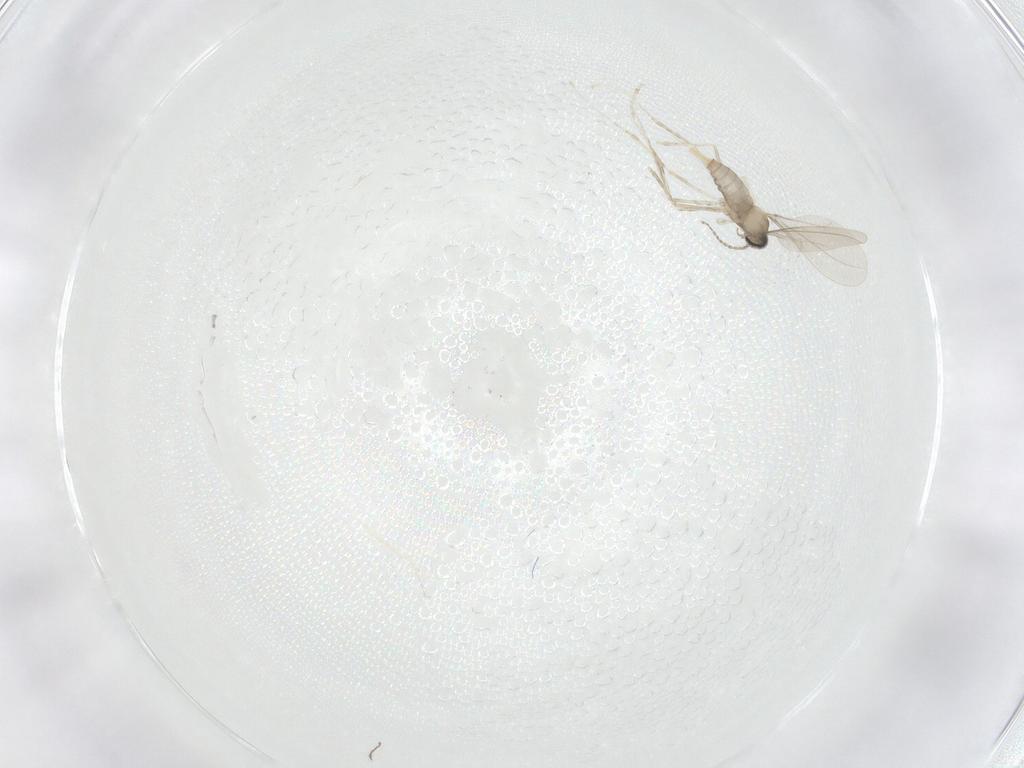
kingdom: Animalia
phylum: Arthropoda
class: Insecta
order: Diptera
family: Cecidomyiidae
